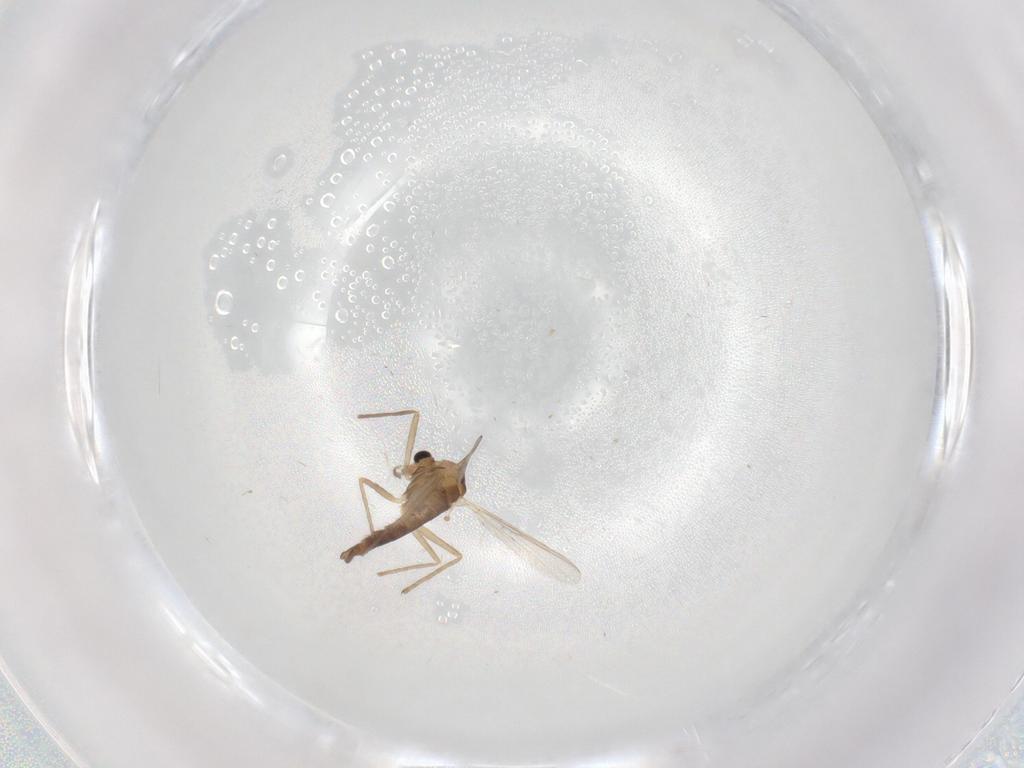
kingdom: Animalia
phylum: Arthropoda
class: Insecta
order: Diptera
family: Chironomidae
